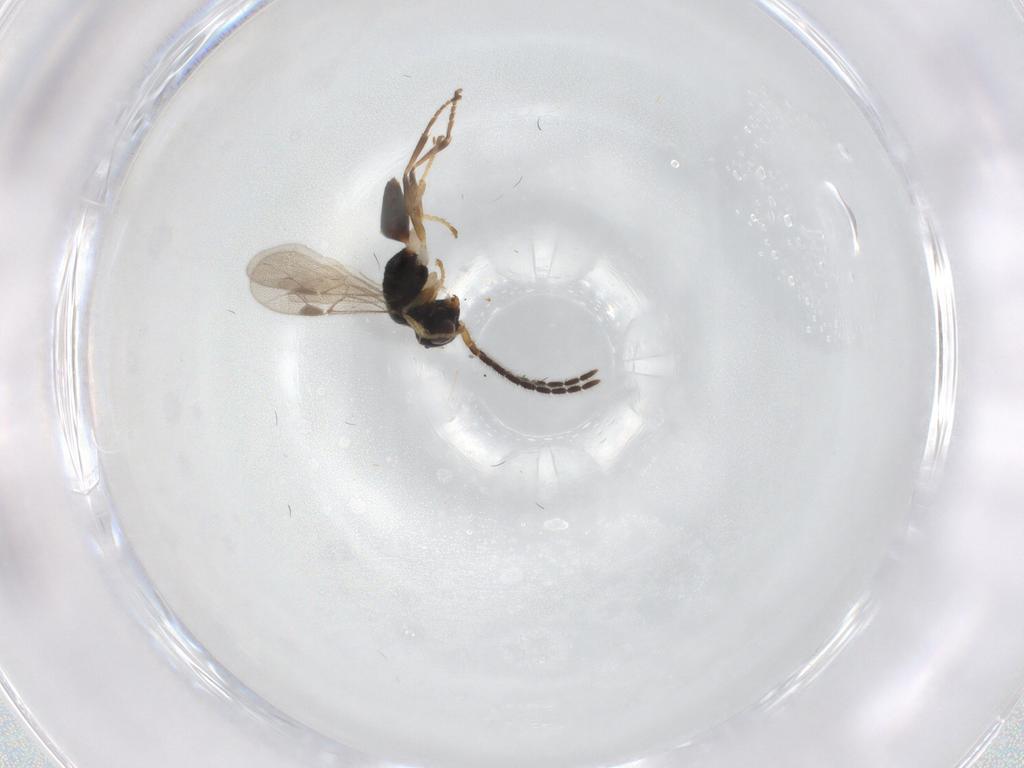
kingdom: Animalia
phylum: Arthropoda
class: Insecta
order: Hymenoptera
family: Dryinidae
